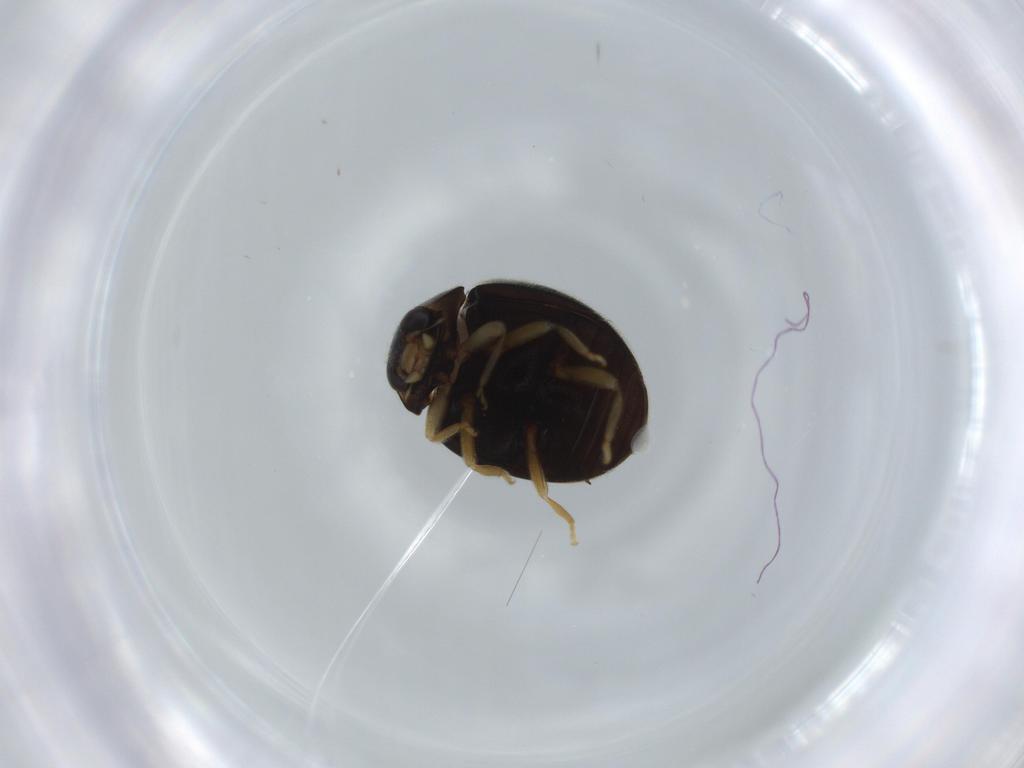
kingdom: Animalia
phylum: Arthropoda
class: Insecta
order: Coleoptera
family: Coccinellidae
